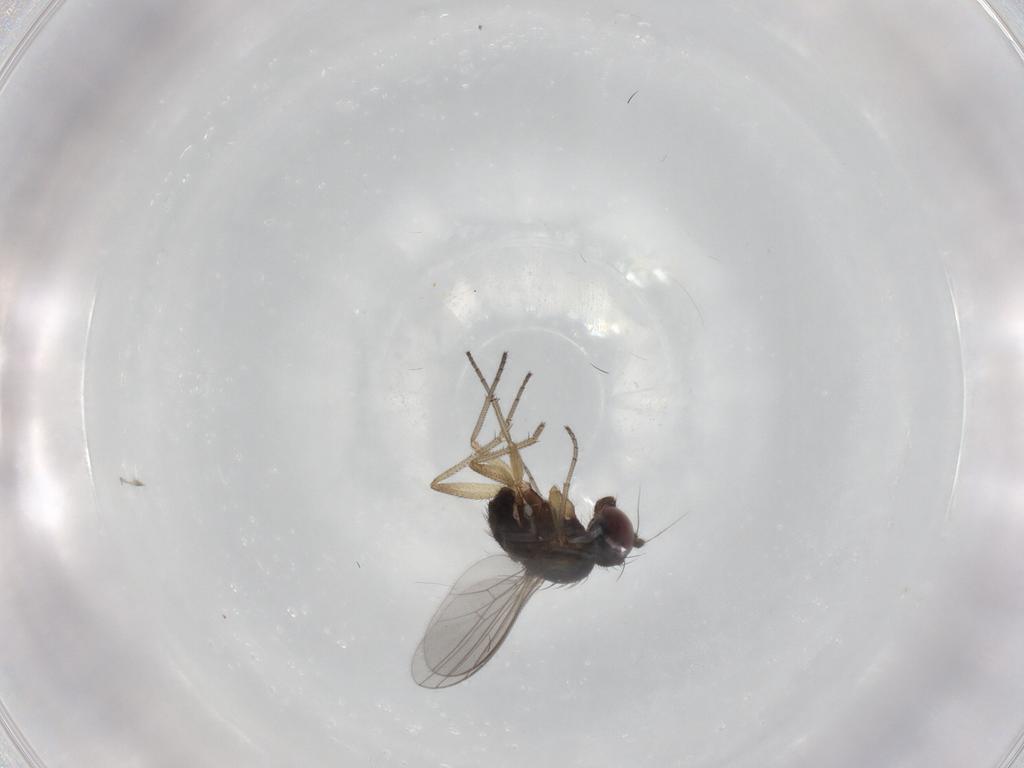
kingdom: Animalia
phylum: Arthropoda
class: Insecta
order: Diptera
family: Dolichopodidae
